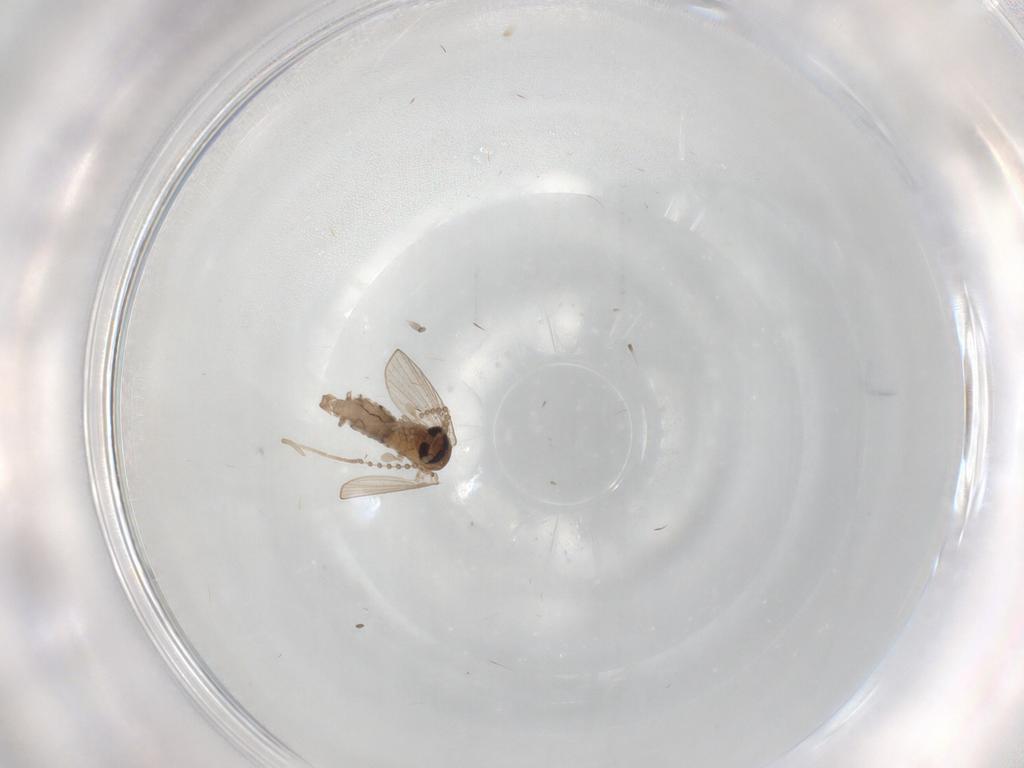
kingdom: Animalia
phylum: Arthropoda
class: Insecta
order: Diptera
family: Psychodidae
